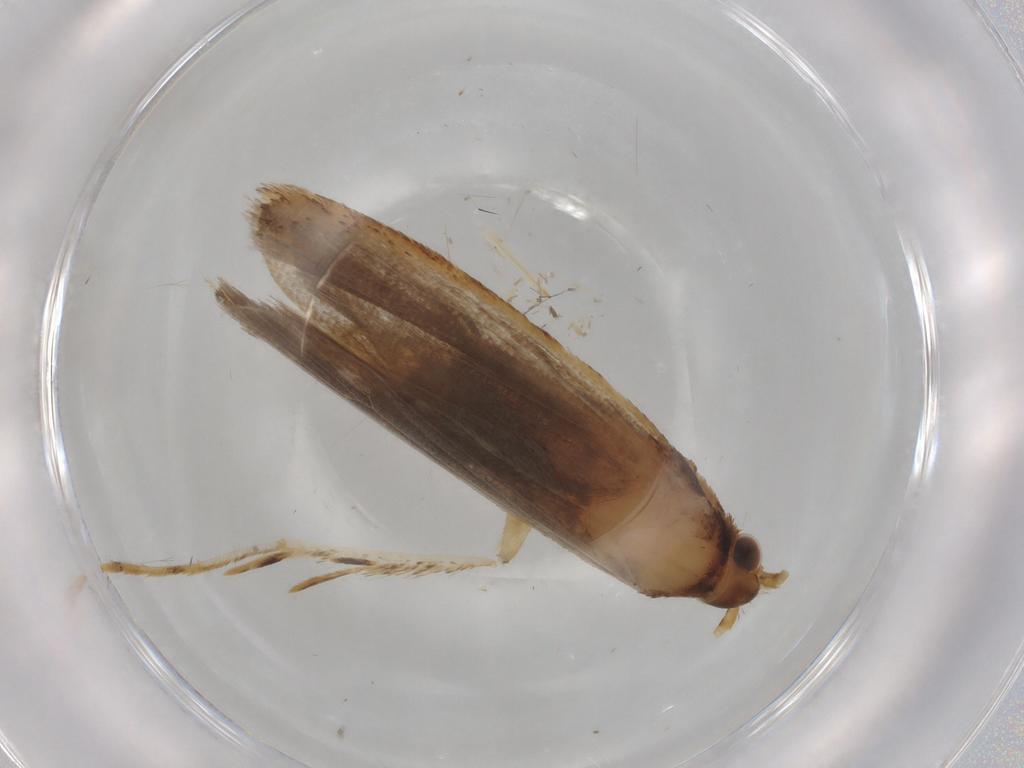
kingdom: Animalia
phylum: Arthropoda
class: Insecta
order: Lepidoptera
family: Lecithoceridae
